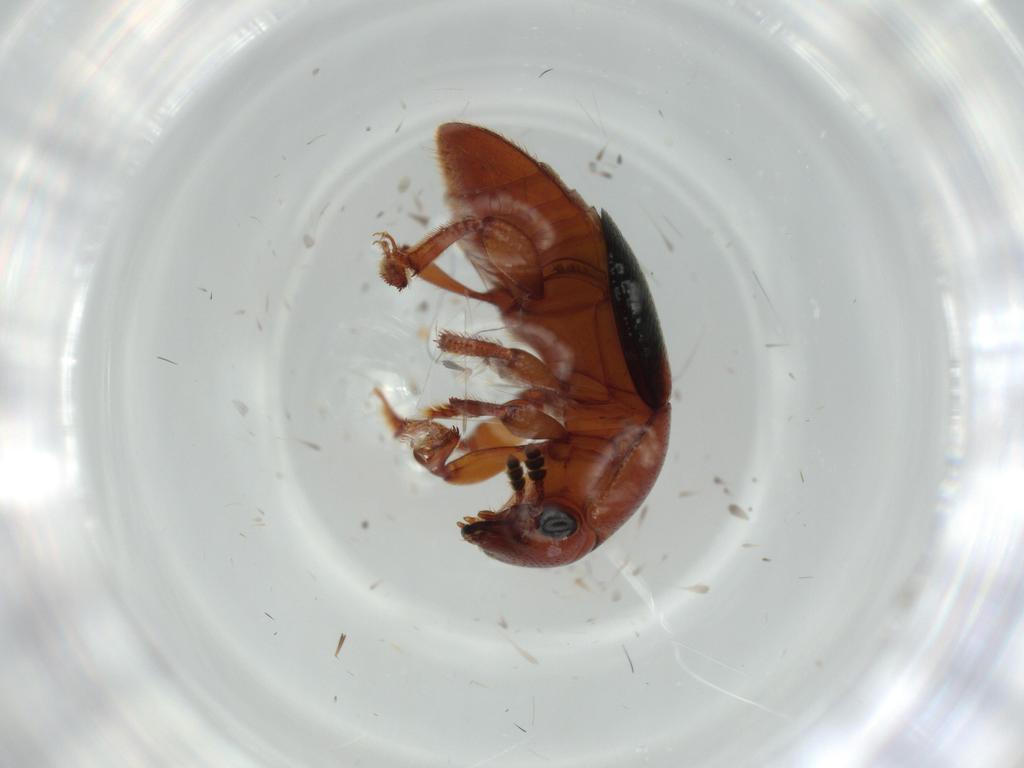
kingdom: Animalia
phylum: Arthropoda
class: Insecta
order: Coleoptera
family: Nitidulidae
